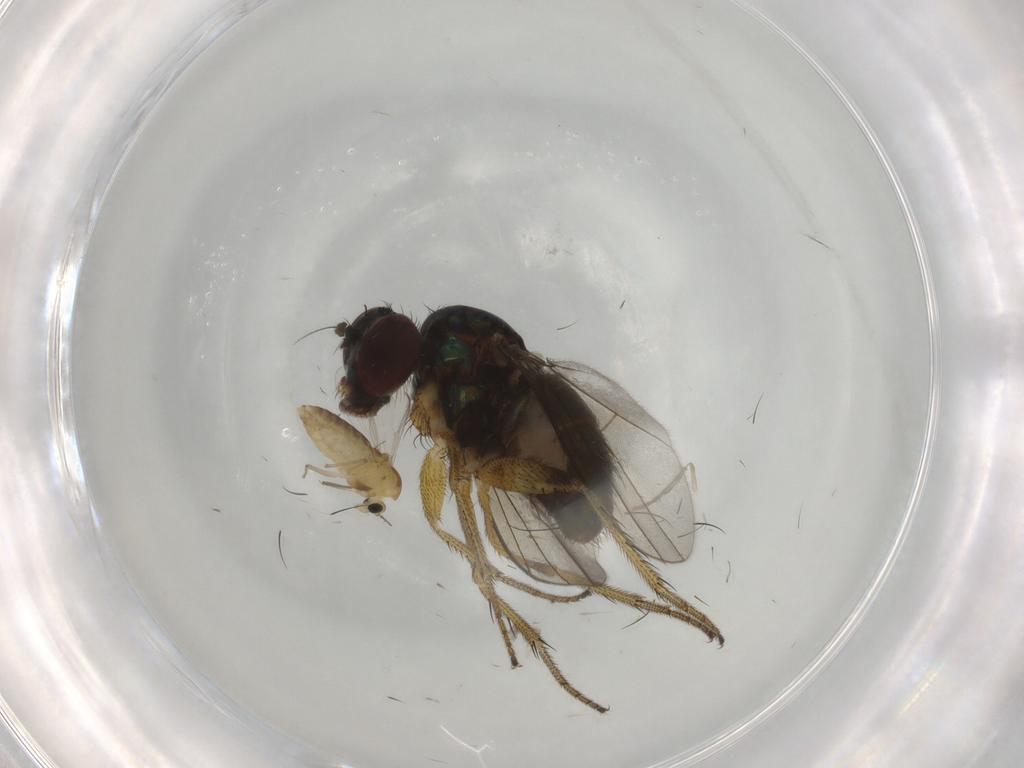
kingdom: Animalia
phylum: Arthropoda
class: Insecta
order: Diptera
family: Dolichopodidae
